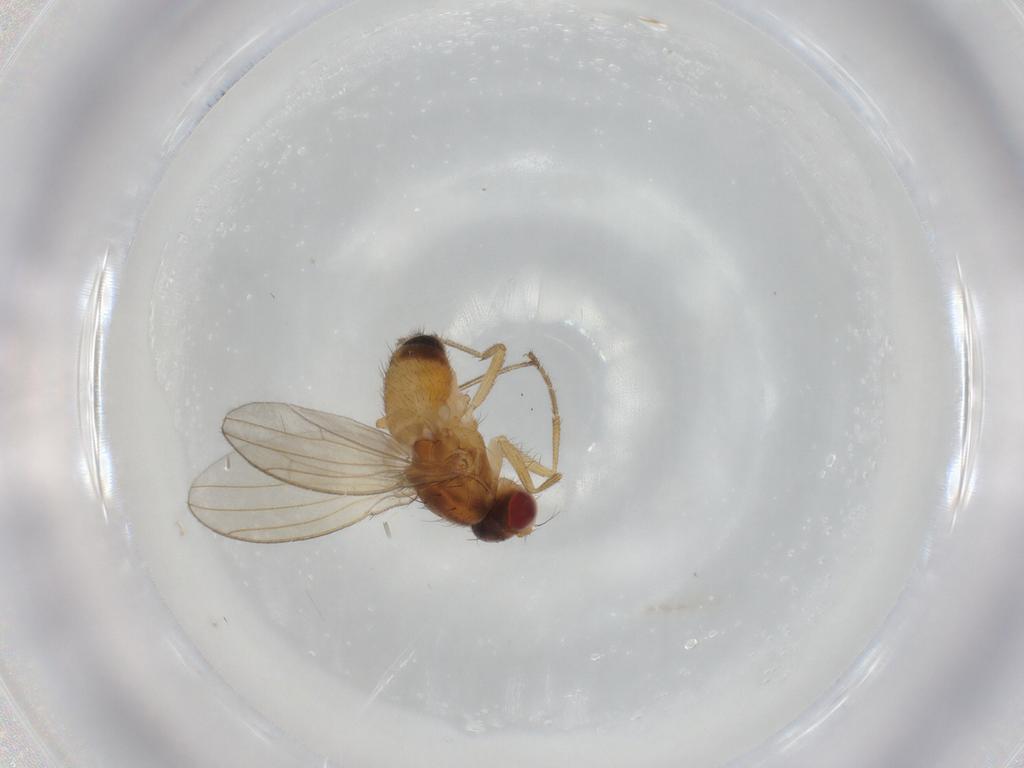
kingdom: Animalia
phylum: Arthropoda
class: Insecta
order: Diptera
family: Drosophilidae
